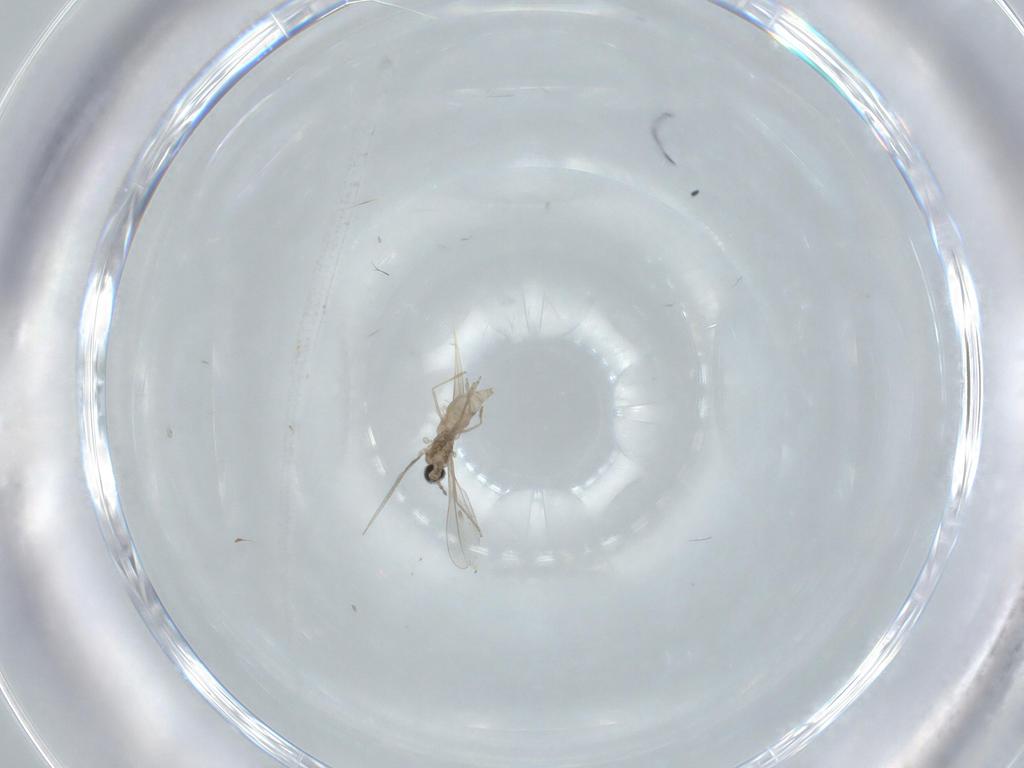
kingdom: Animalia
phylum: Arthropoda
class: Insecta
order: Diptera
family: Cecidomyiidae
